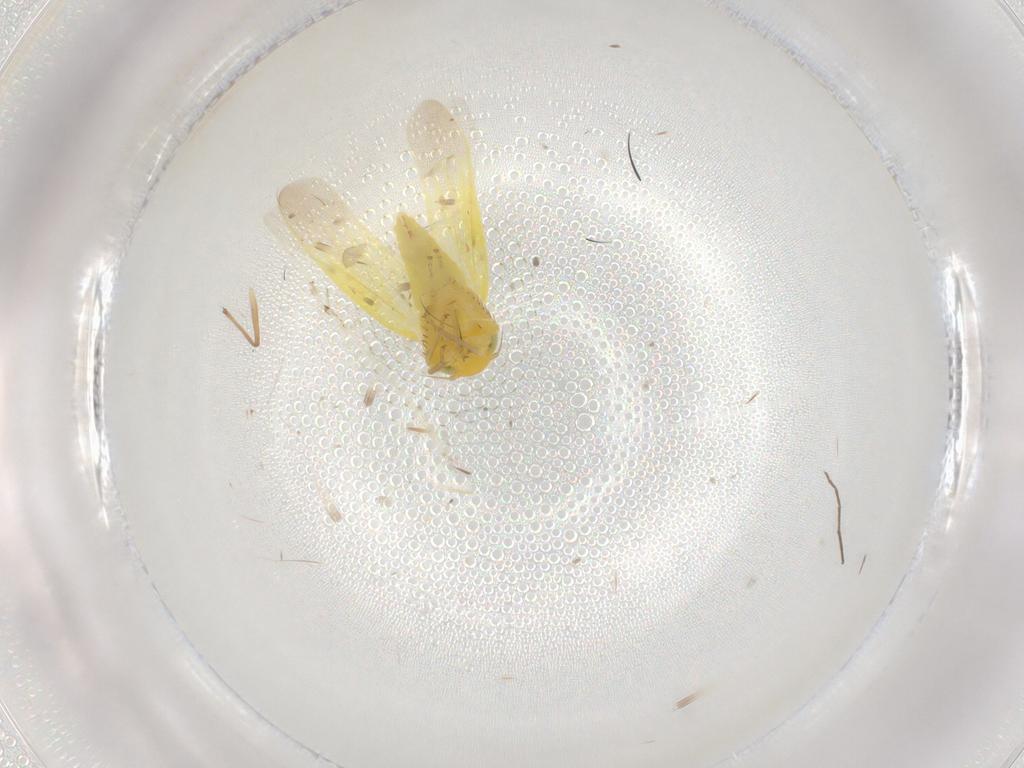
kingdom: Animalia
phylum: Arthropoda
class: Insecta
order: Hemiptera
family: Cicadellidae
